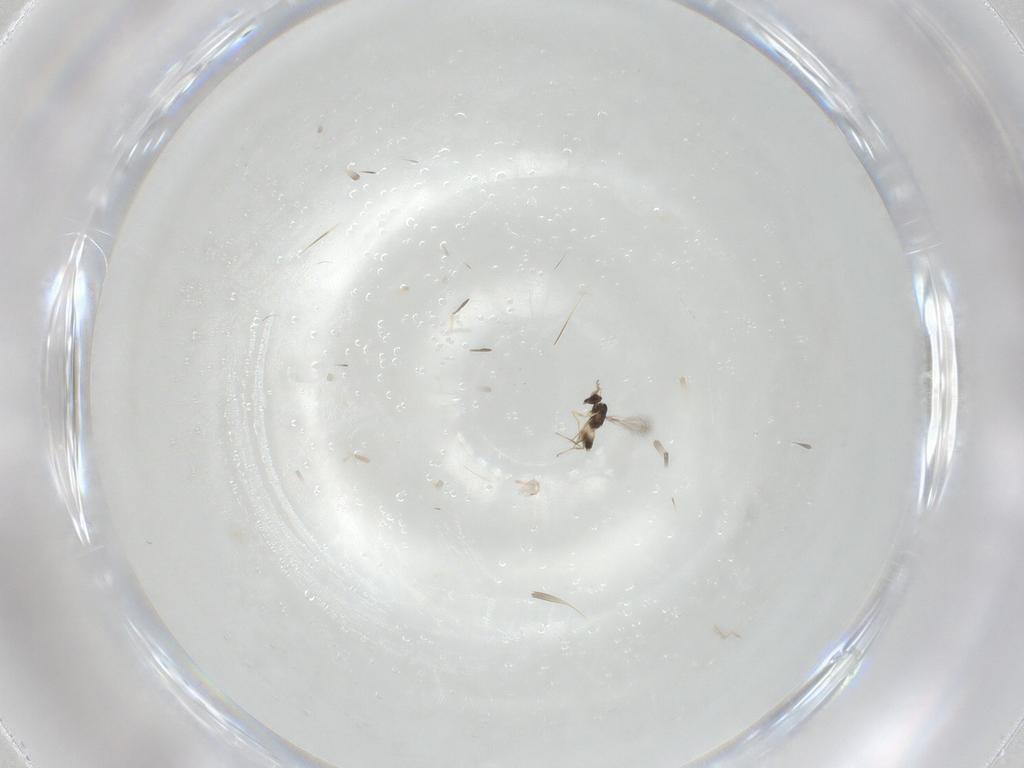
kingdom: Animalia
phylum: Arthropoda
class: Insecta
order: Hymenoptera
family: Mymaridae
